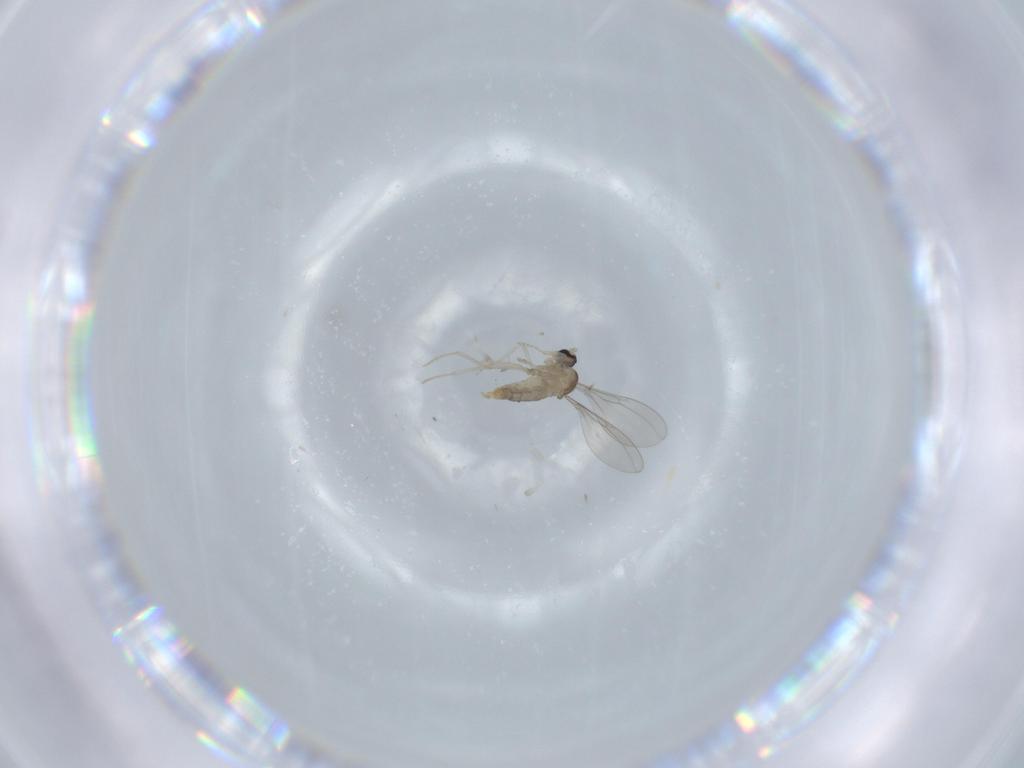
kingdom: Animalia
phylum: Arthropoda
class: Insecta
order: Diptera
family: Cecidomyiidae
